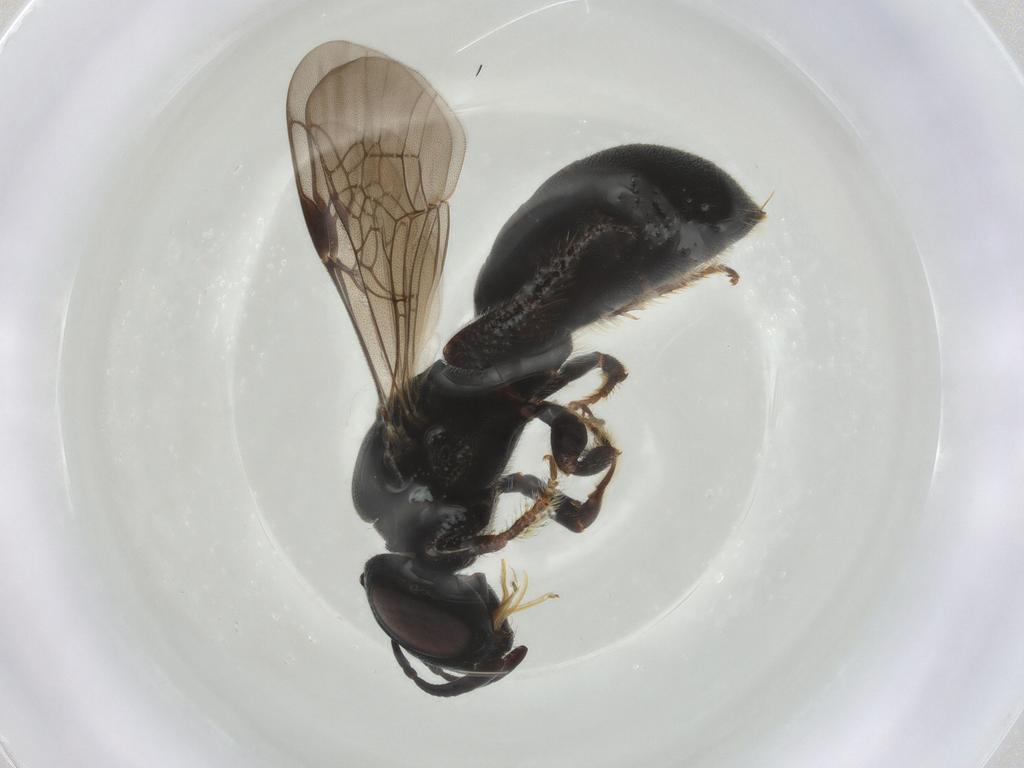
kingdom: Animalia
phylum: Arthropoda
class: Insecta
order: Hymenoptera
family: Apidae
